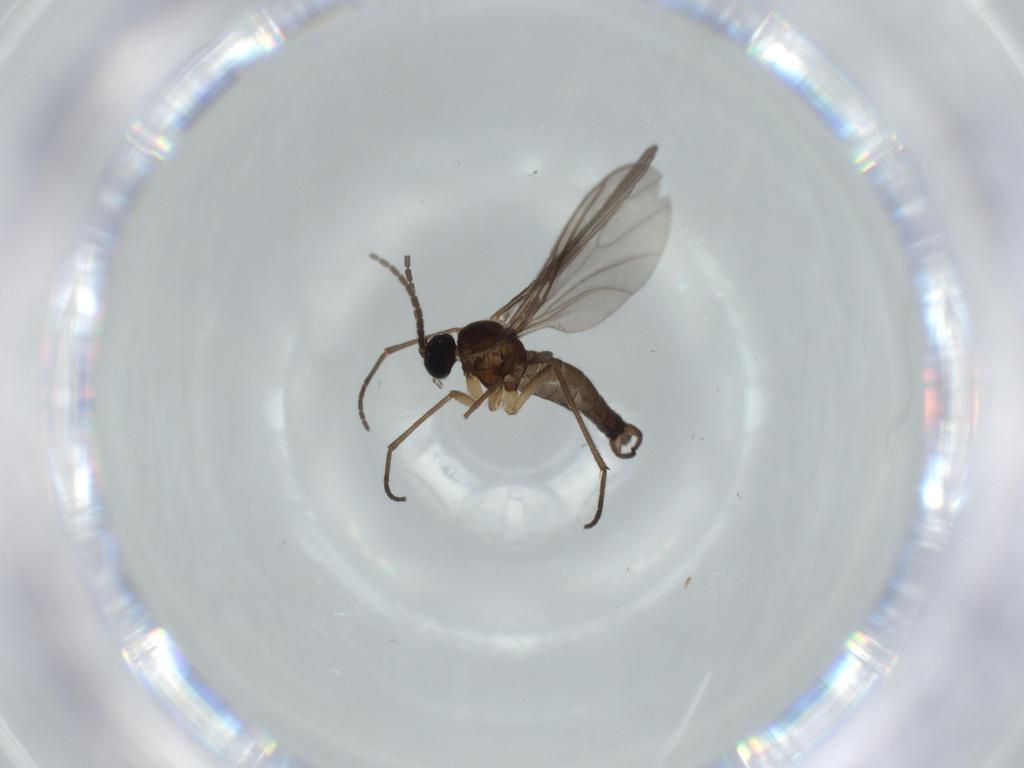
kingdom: Animalia
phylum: Arthropoda
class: Insecta
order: Diptera
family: Sciaridae
